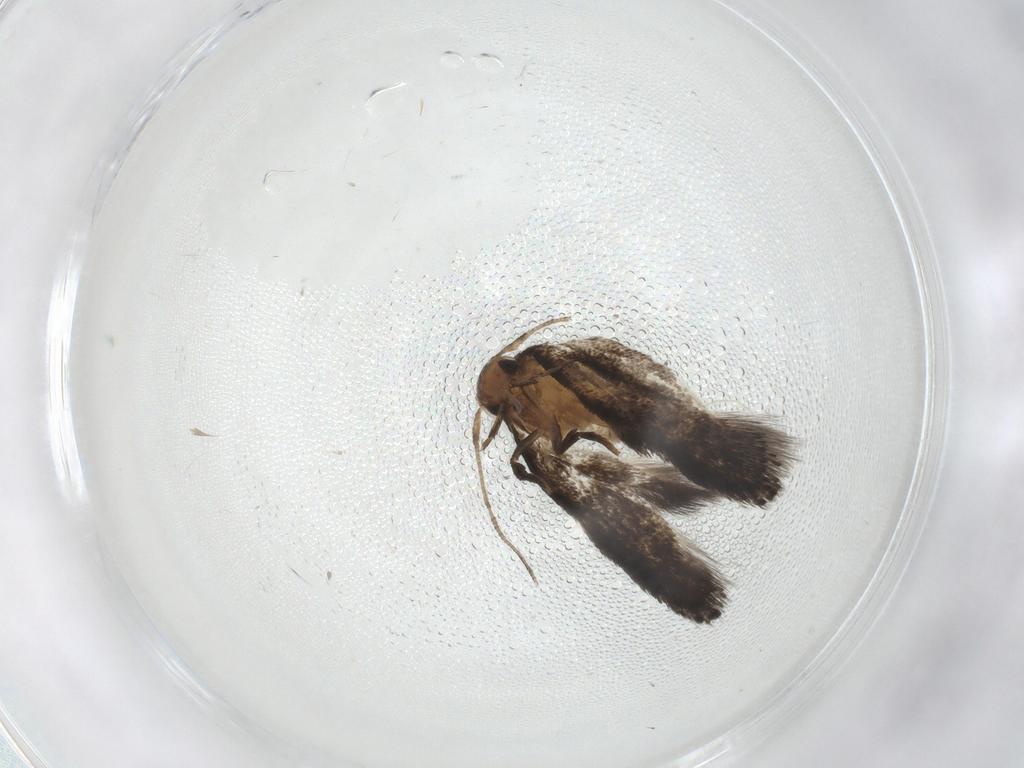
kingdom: Animalia
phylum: Arthropoda
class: Insecta
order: Lepidoptera
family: Elachistidae
